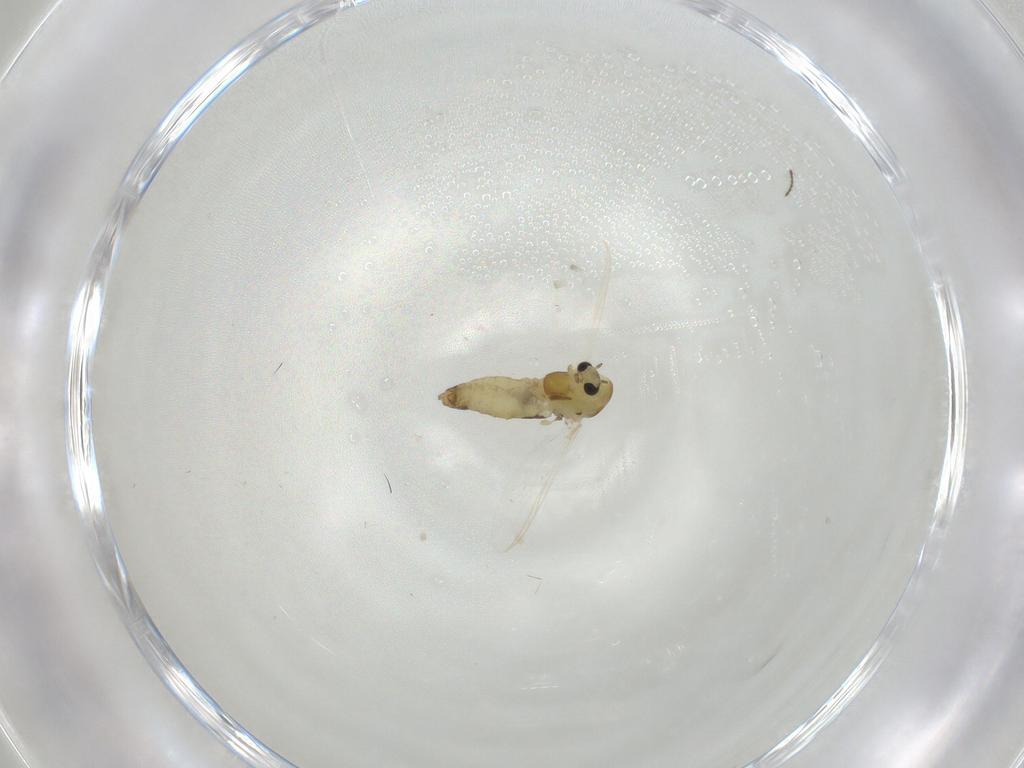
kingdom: Animalia
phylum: Arthropoda
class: Insecta
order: Diptera
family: Chironomidae
